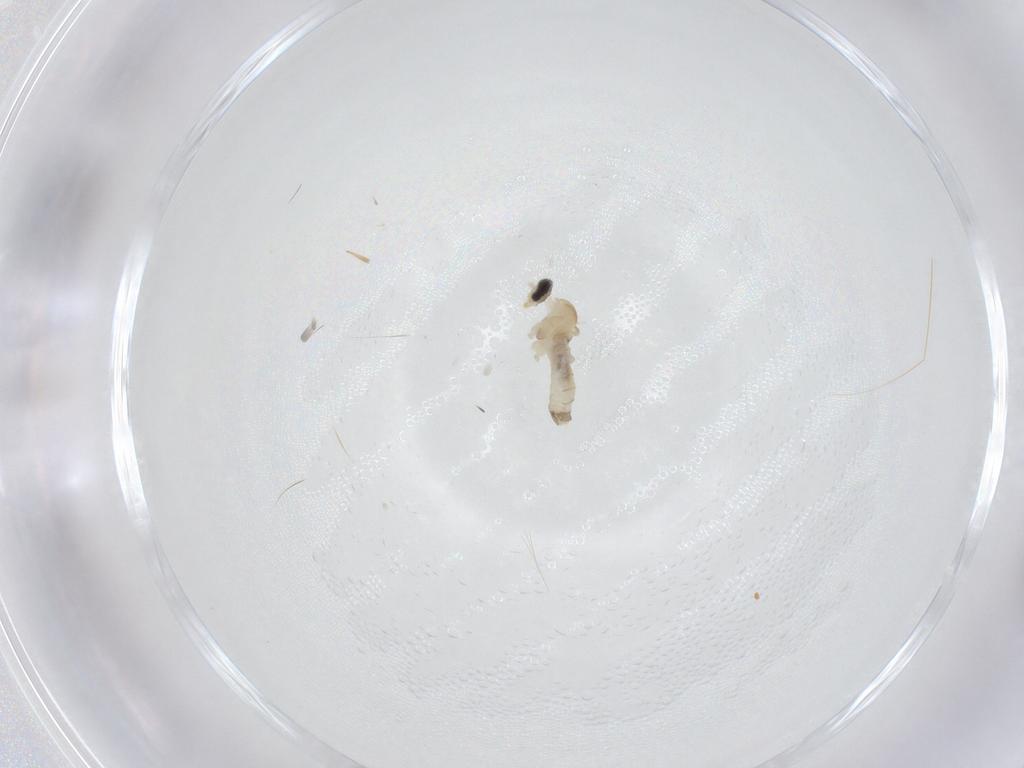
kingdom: Animalia
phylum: Arthropoda
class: Insecta
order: Diptera
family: Cecidomyiidae
